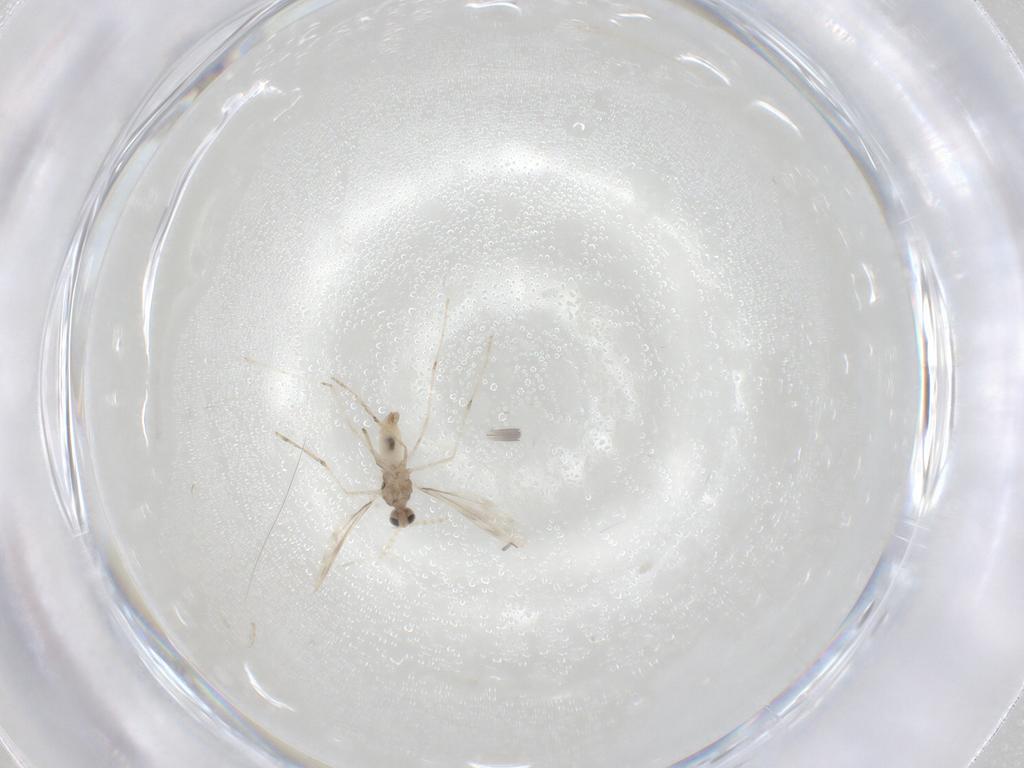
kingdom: Animalia
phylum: Arthropoda
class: Insecta
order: Diptera
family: Cecidomyiidae
